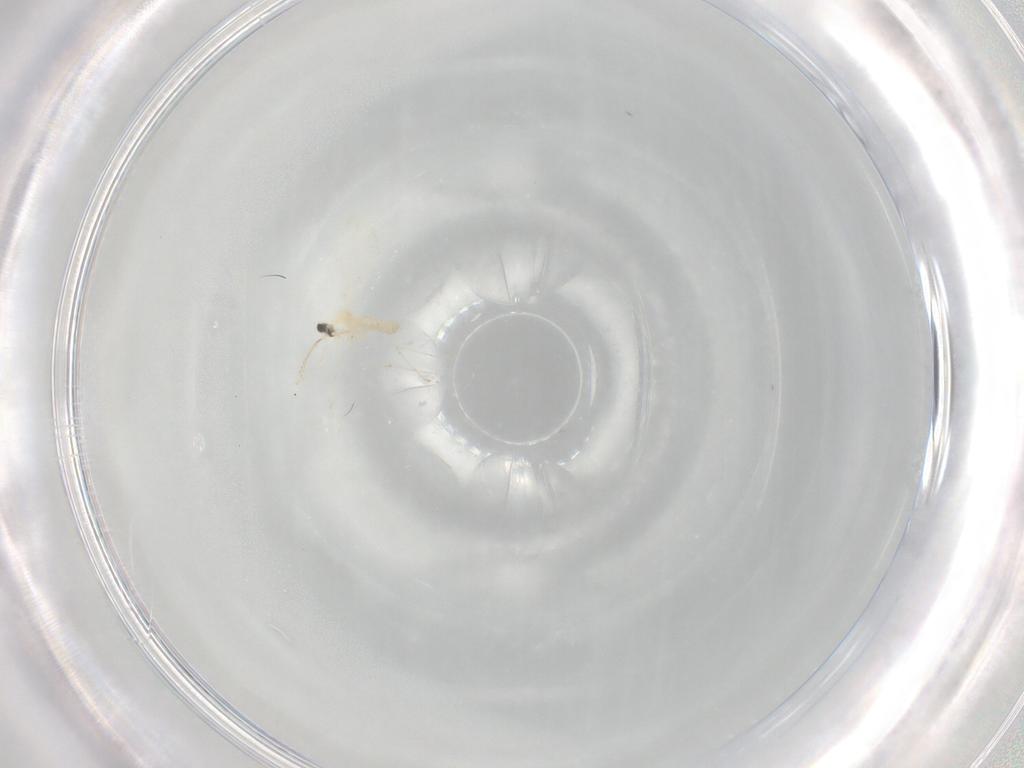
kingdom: Animalia
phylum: Arthropoda
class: Insecta
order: Diptera
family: Cecidomyiidae
